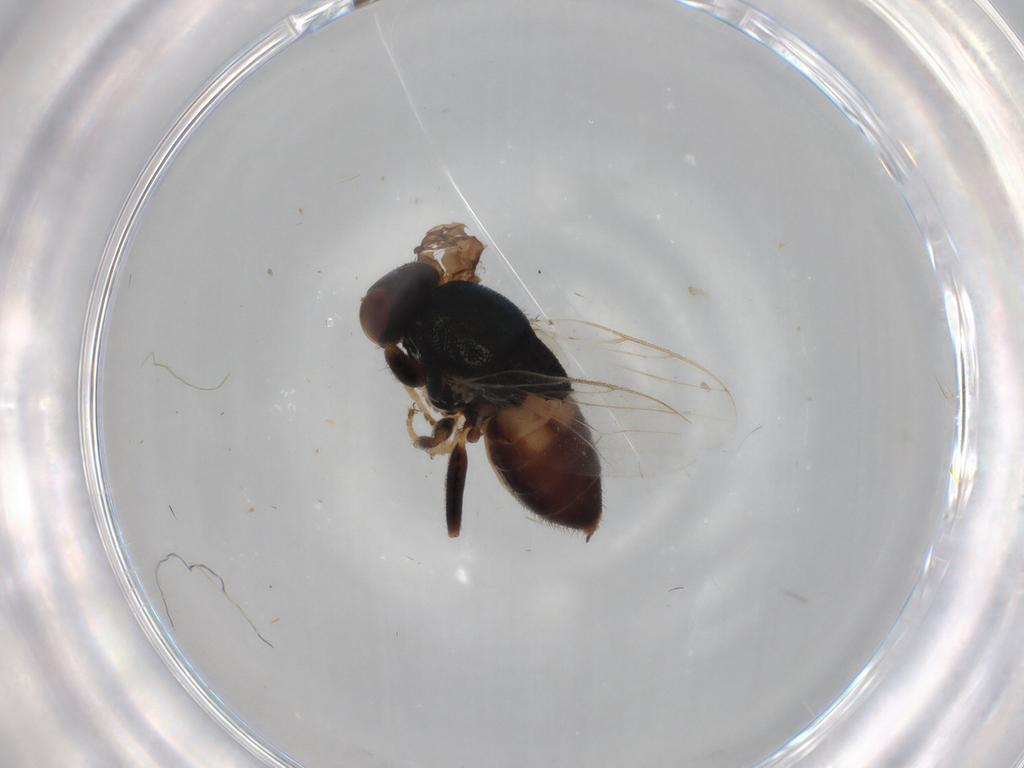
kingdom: Animalia
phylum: Arthropoda
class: Insecta
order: Diptera
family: Chloropidae
